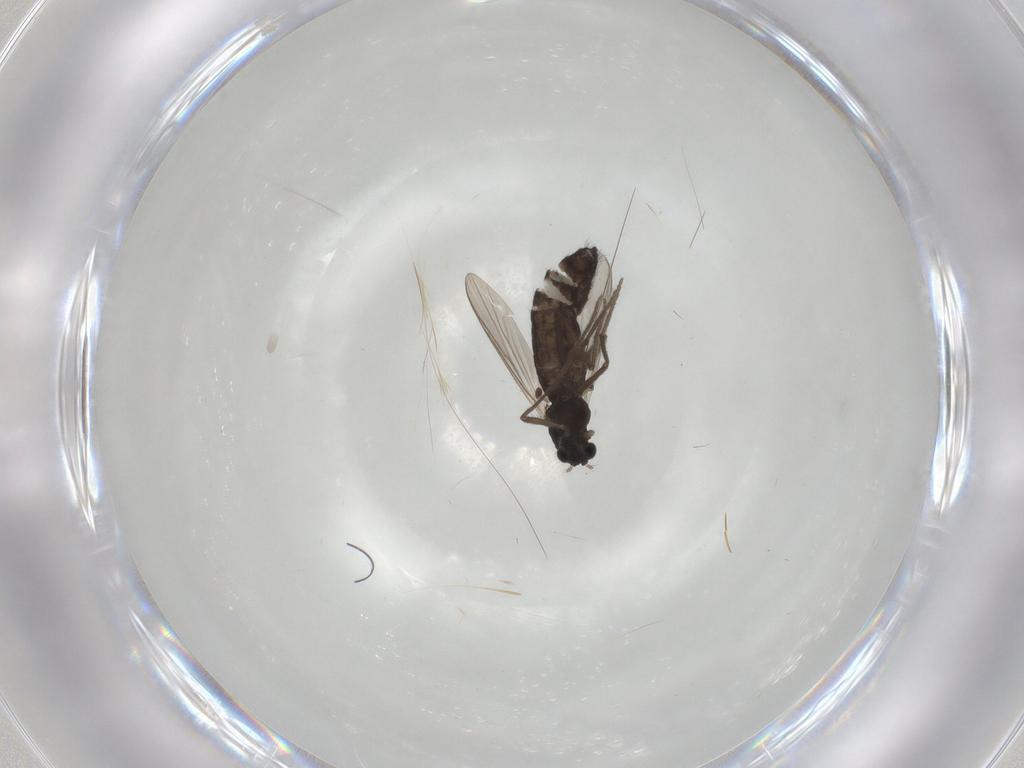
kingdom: Animalia
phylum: Arthropoda
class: Insecta
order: Diptera
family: Chironomidae
